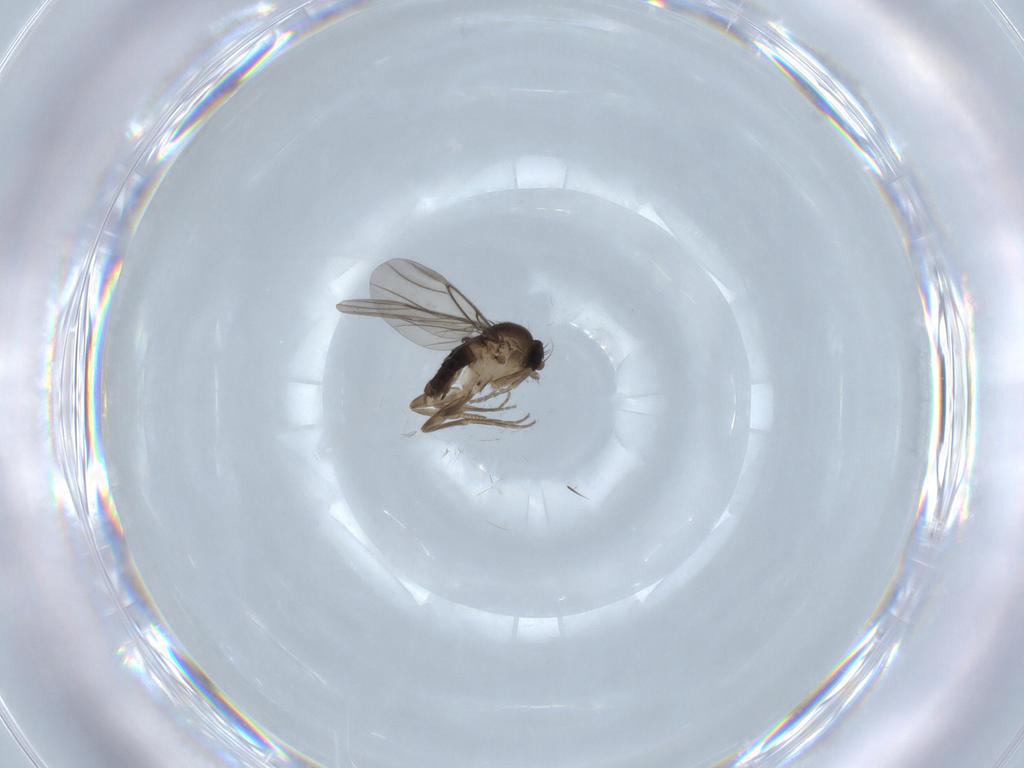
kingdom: Animalia
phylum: Arthropoda
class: Insecta
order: Diptera
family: Phoridae
